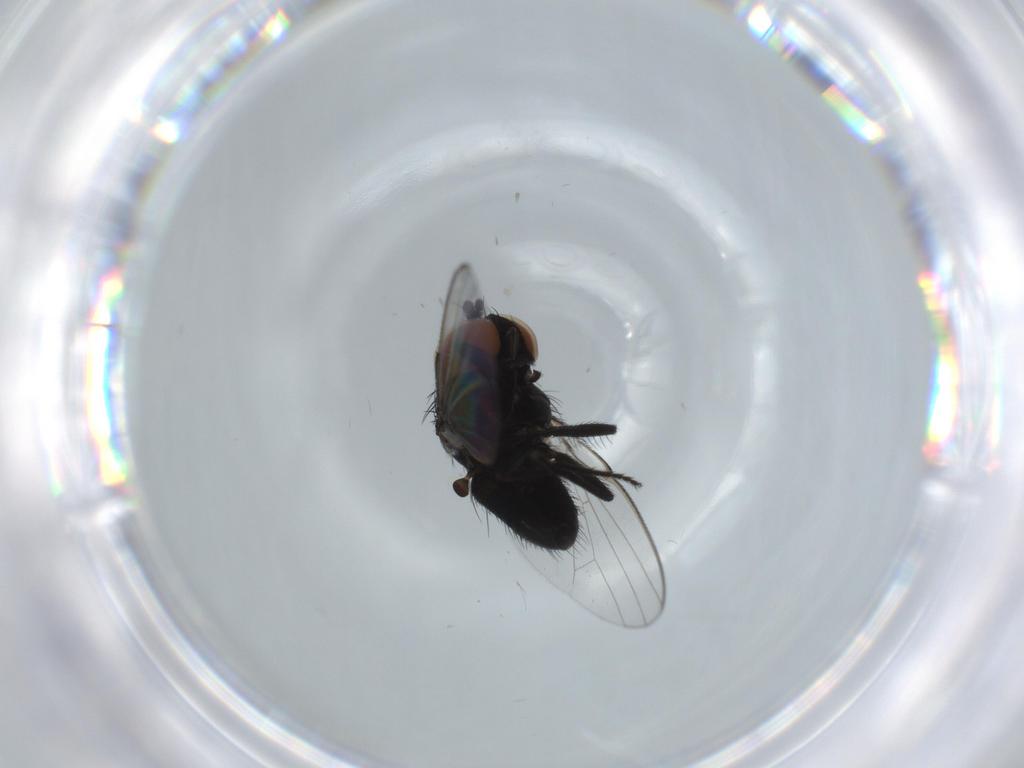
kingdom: Animalia
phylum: Arthropoda
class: Insecta
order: Diptera
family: Milichiidae
